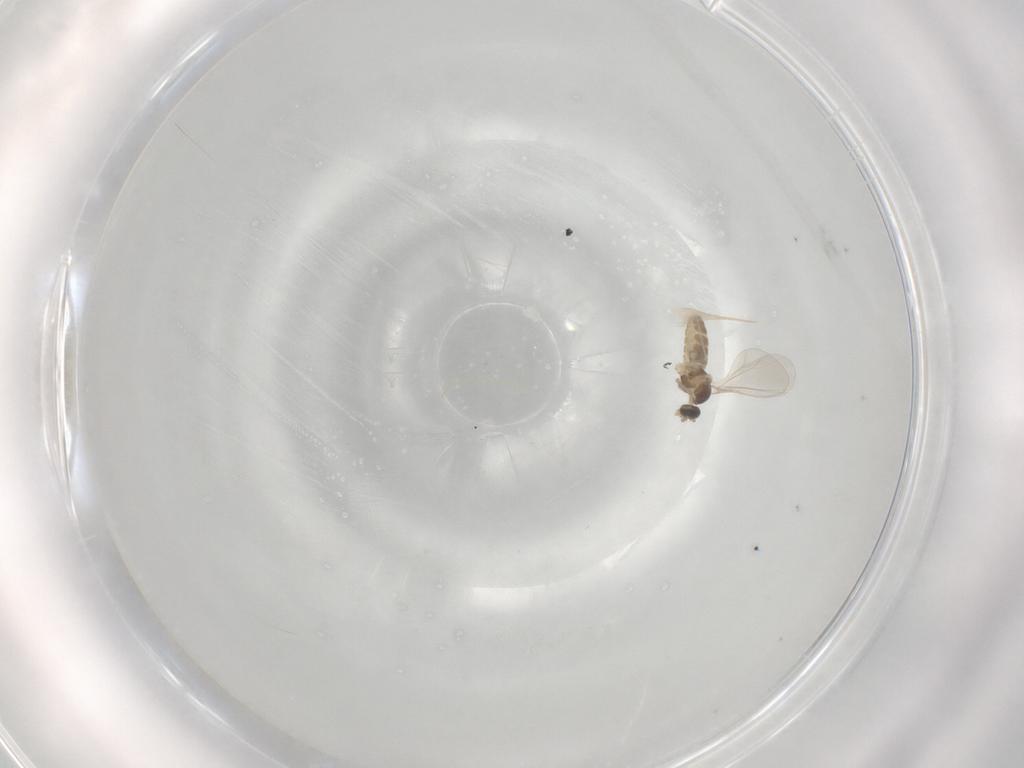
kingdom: Animalia
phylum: Arthropoda
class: Insecta
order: Diptera
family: Cecidomyiidae
